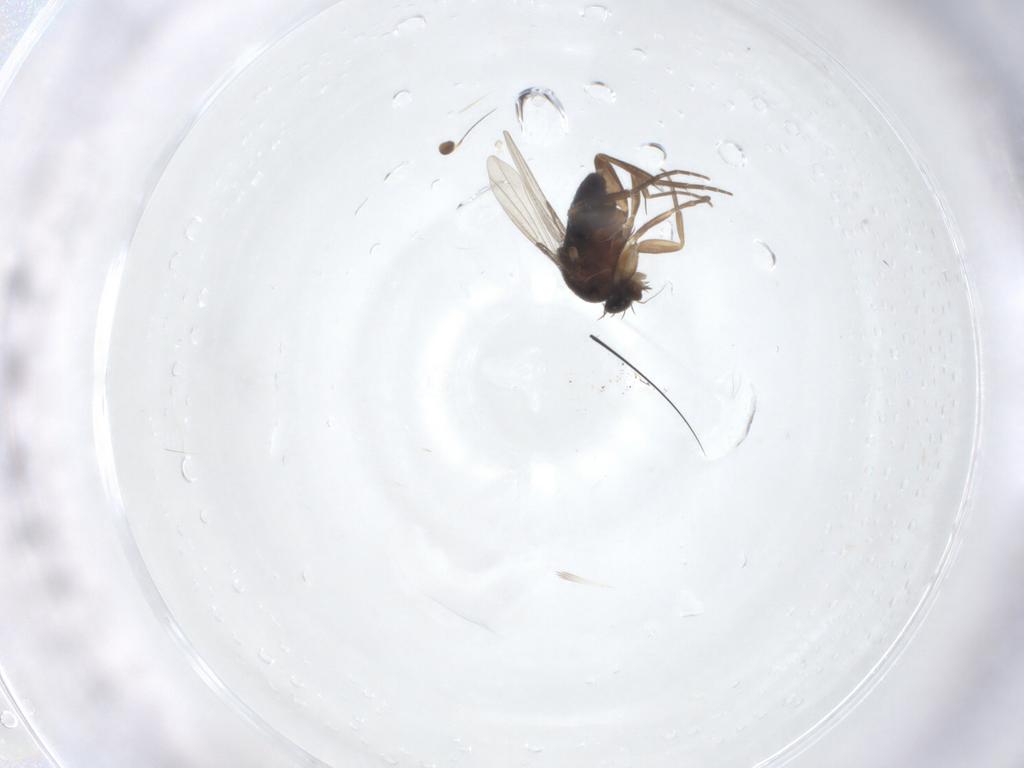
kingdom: Animalia
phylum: Arthropoda
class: Insecta
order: Diptera
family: Phoridae
